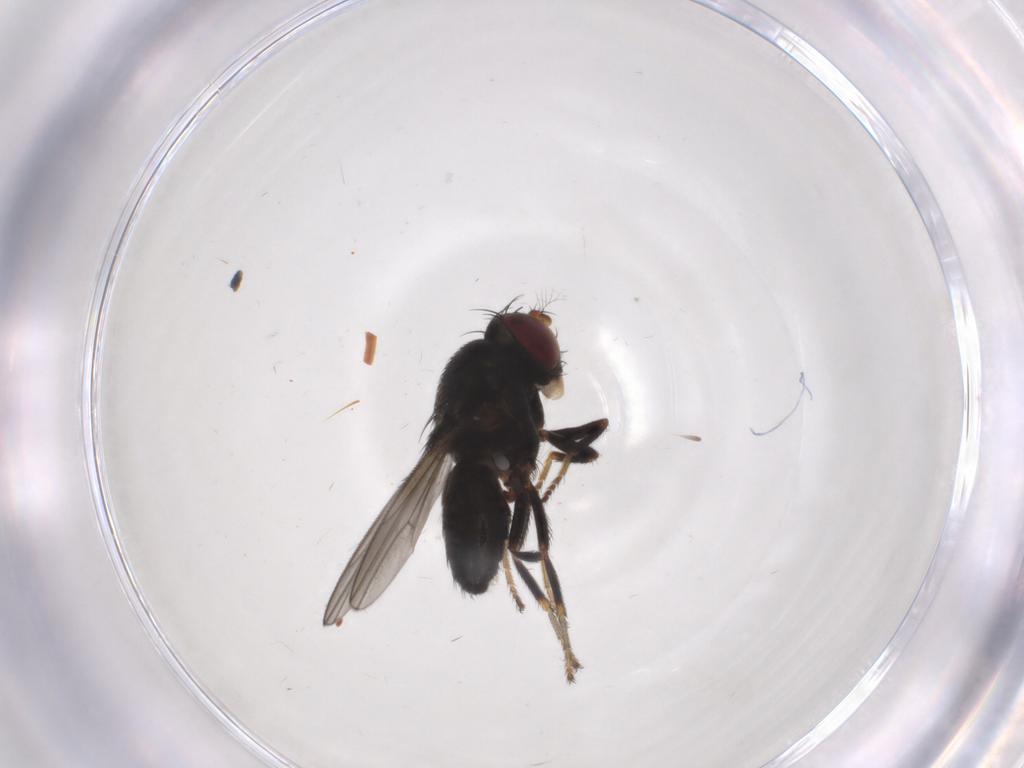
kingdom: Animalia
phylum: Arthropoda
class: Insecta
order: Diptera
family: Ephydridae
